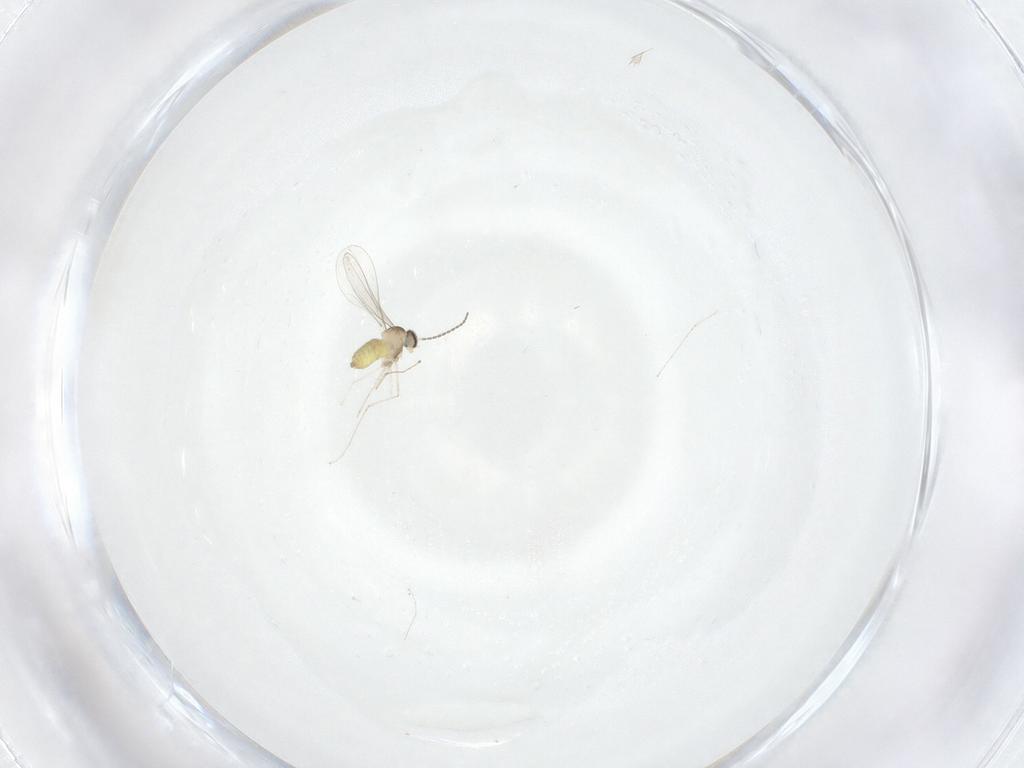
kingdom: Animalia
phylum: Arthropoda
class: Insecta
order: Diptera
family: Cecidomyiidae
